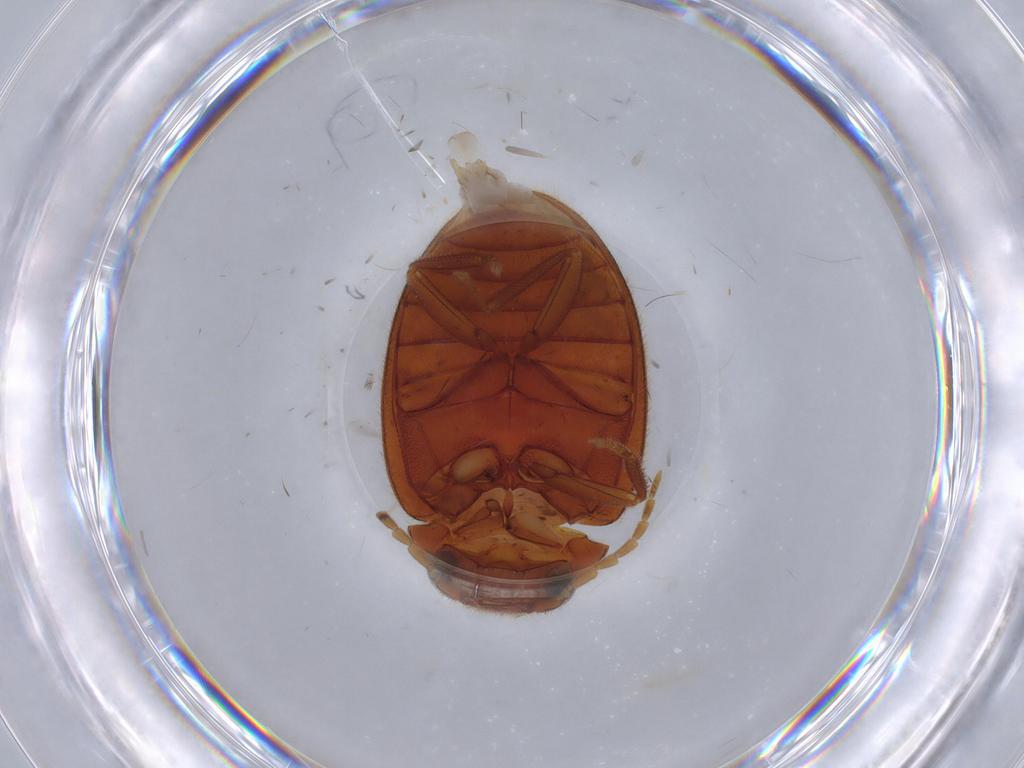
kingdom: Animalia
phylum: Arthropoda
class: Insecta
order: Coleoptera
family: Scirtidae
